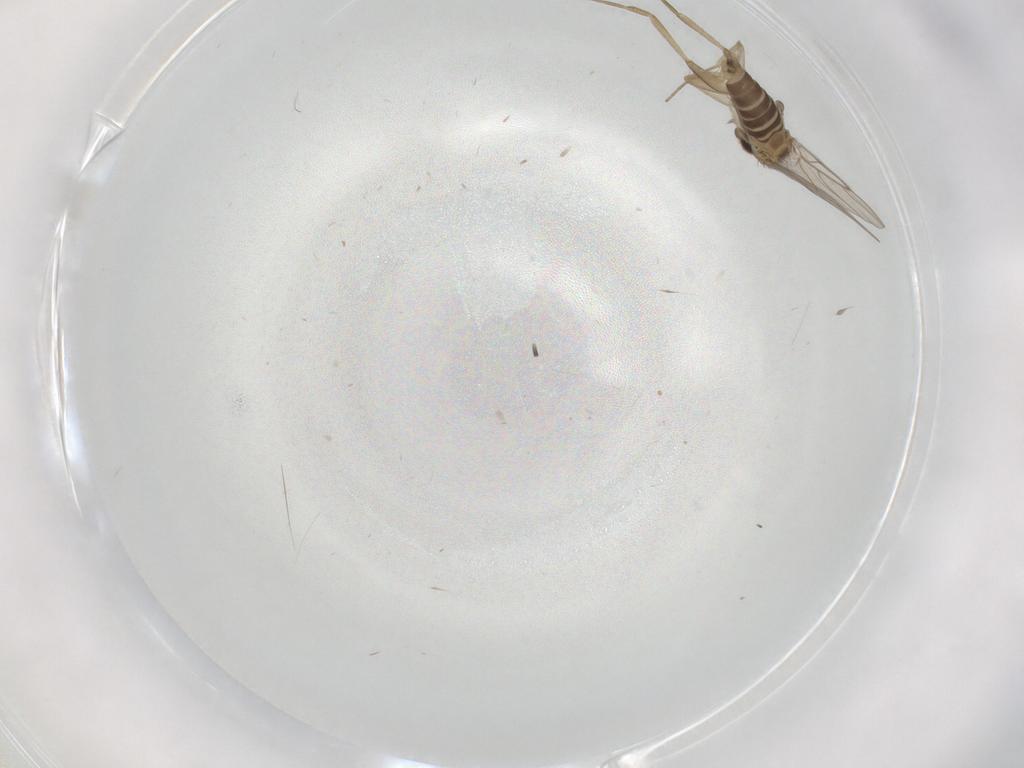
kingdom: Animalia
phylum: Arthropoda
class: Insecta
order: Diptera
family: Phoridae
